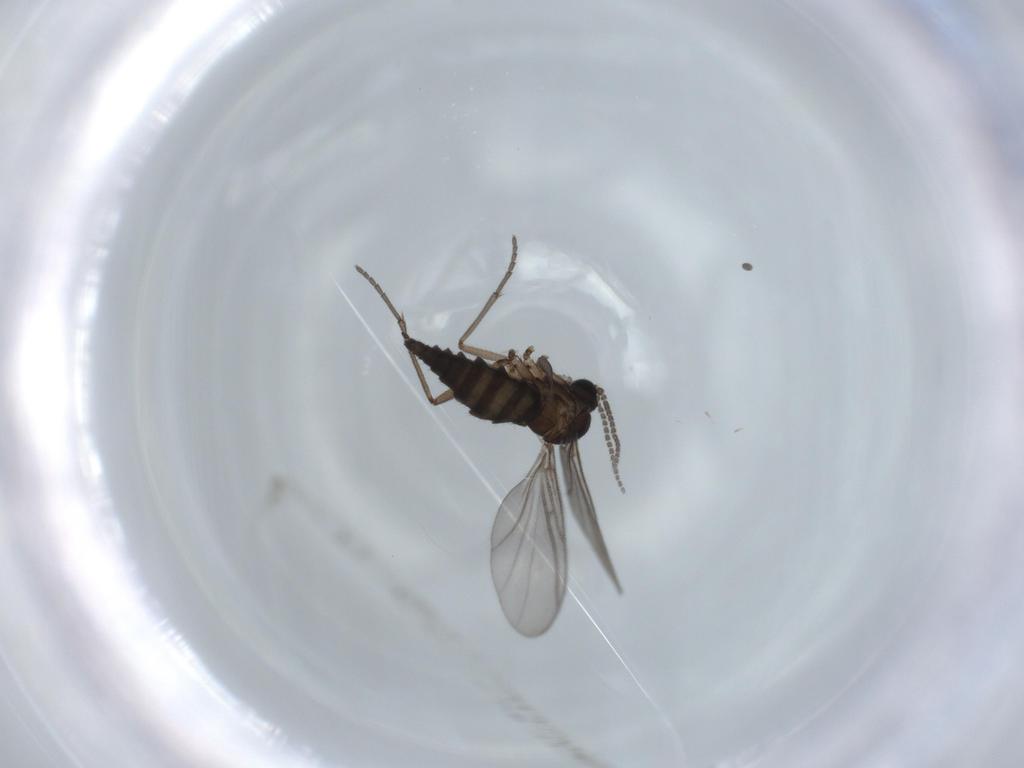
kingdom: Animalia
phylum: Arthropoda
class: Insecta
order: Diptera
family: Sciaridae
